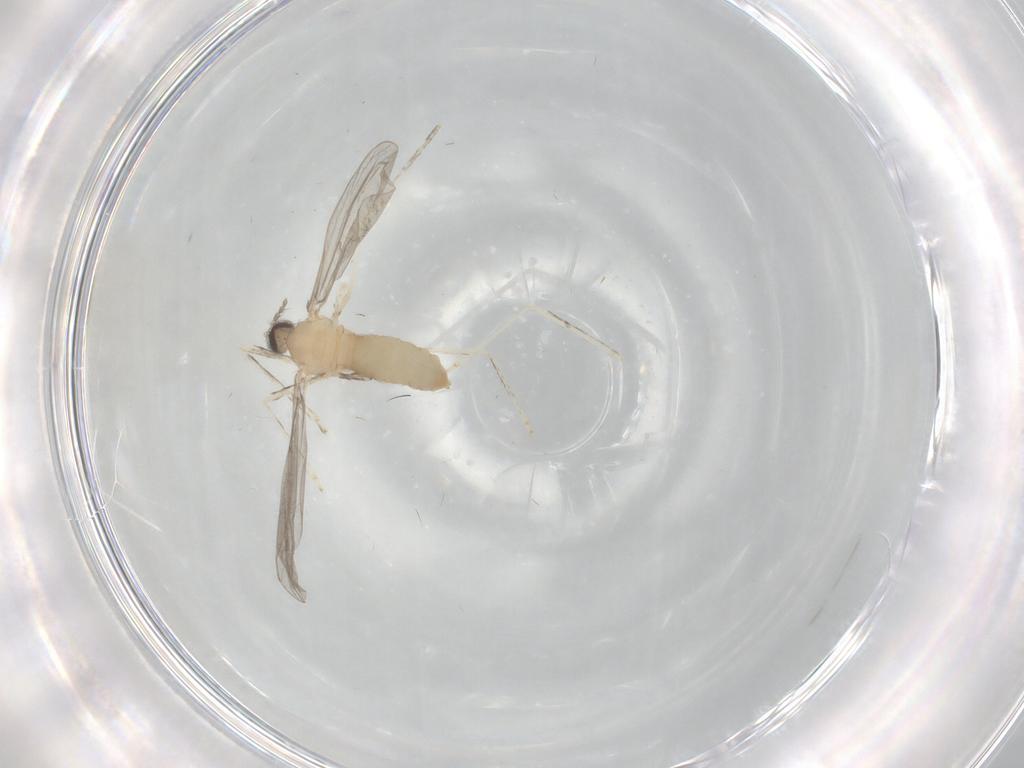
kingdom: Animalia
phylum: Arthropoda
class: Insecta
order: Diptera
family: Cecidomyiidae
